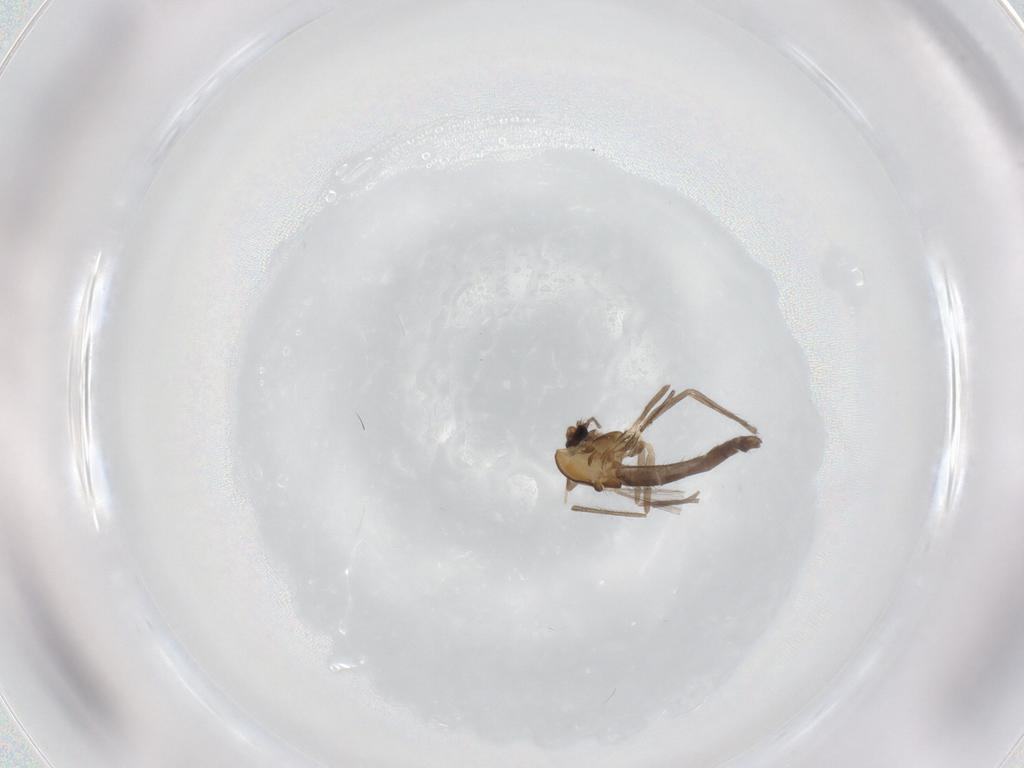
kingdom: Animalia
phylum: Arthropoda
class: Insecta
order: Diptera
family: Chironomidae
